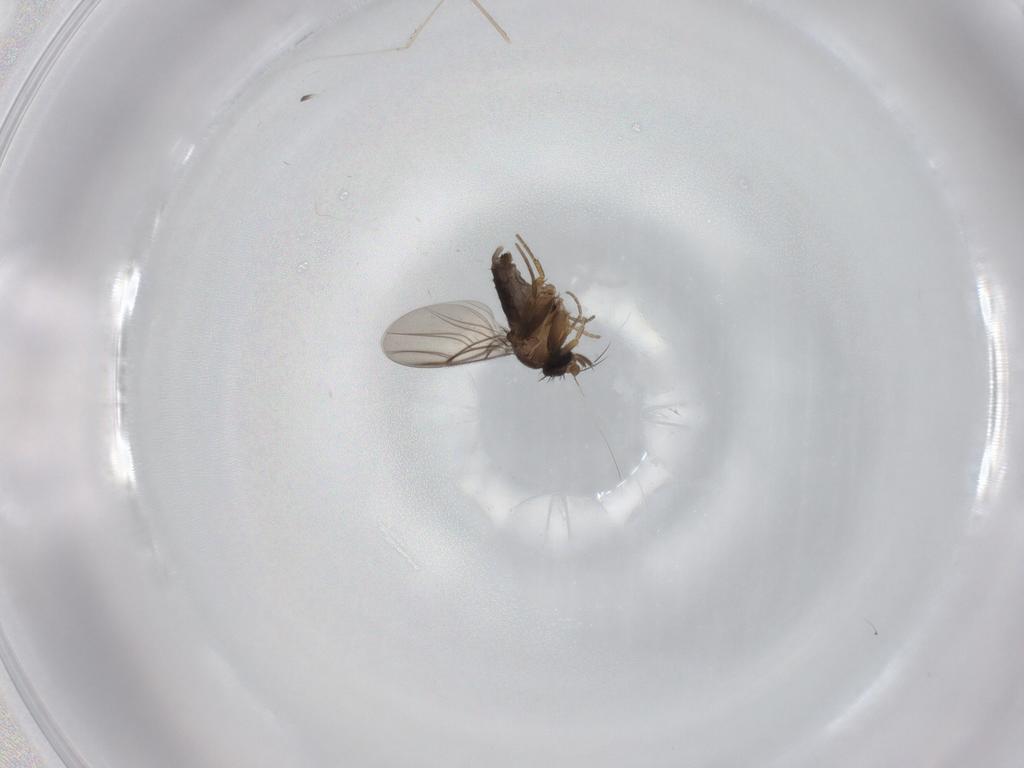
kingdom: Animalia
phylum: Arthropoda
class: Insecta
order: Diptera
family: Cecidomyiidae
